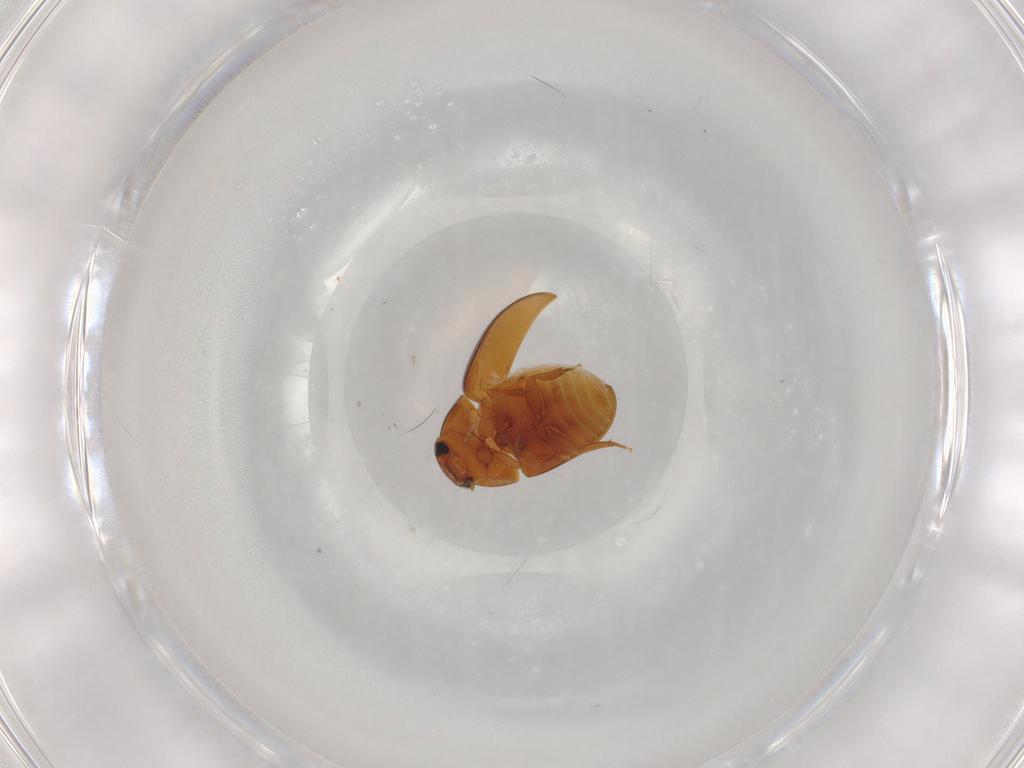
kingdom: Animalia
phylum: Arthropoda
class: Insecta
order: Coleoptera
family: Phalacridae
